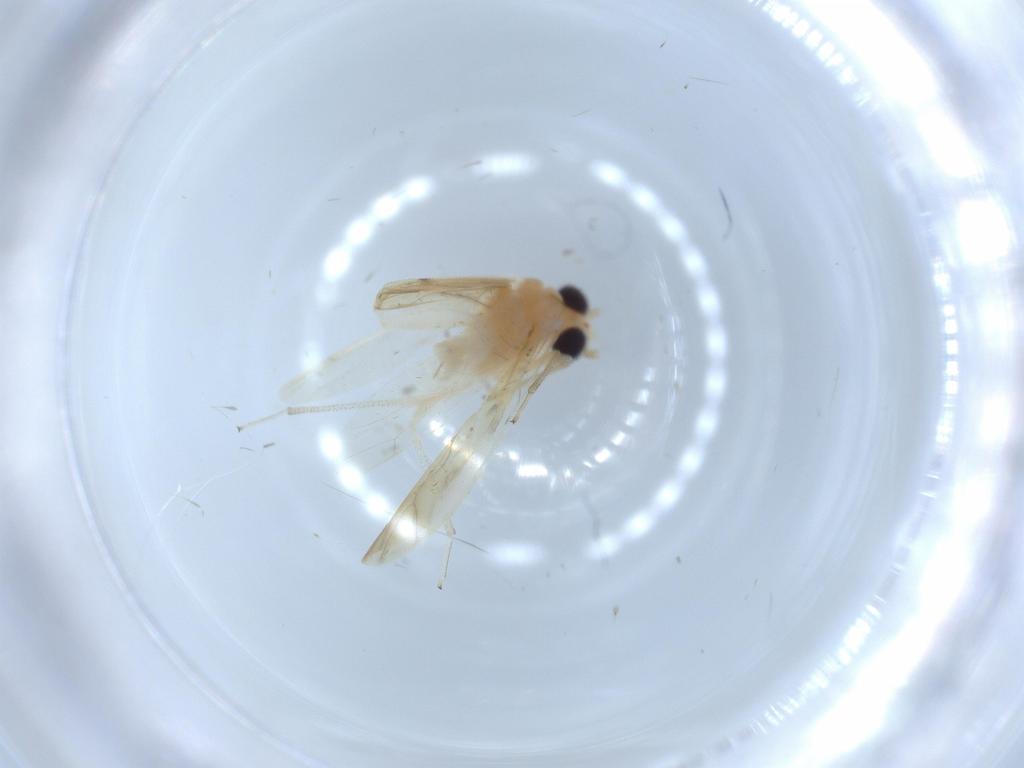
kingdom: Animalia
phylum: Arthropoda
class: Insecta
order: Psocodea
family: Caeciliusidae
